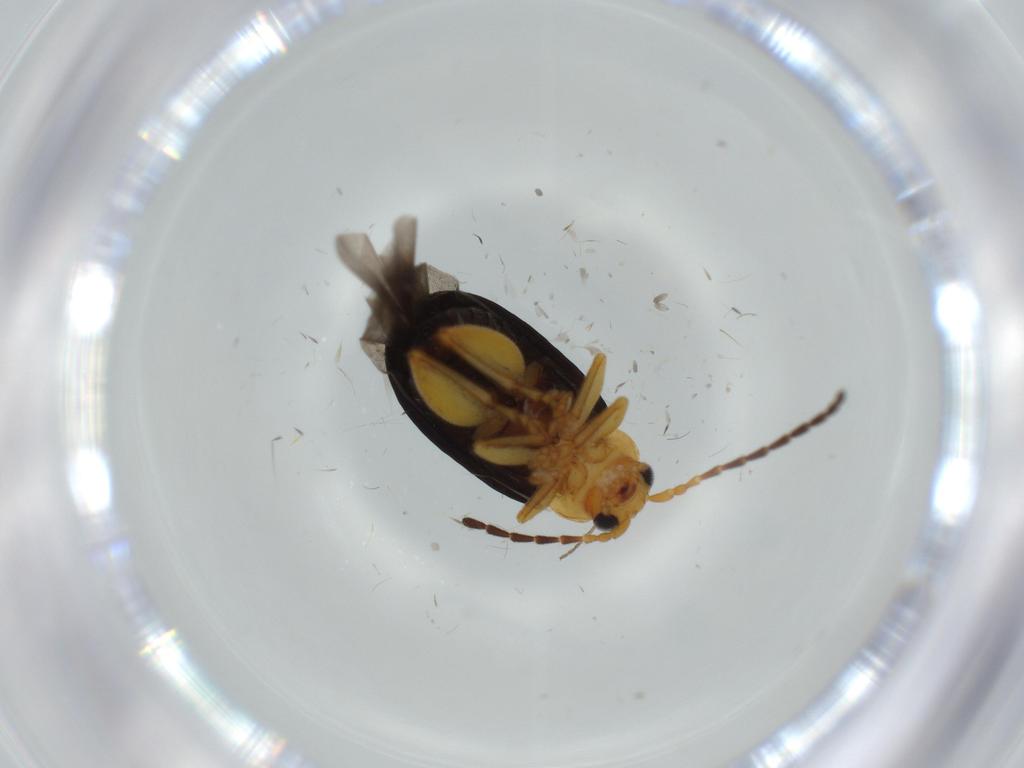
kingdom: Animalia
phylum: Arthropoda
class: Insecta
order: Coleoptera
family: Chrysomelidae
